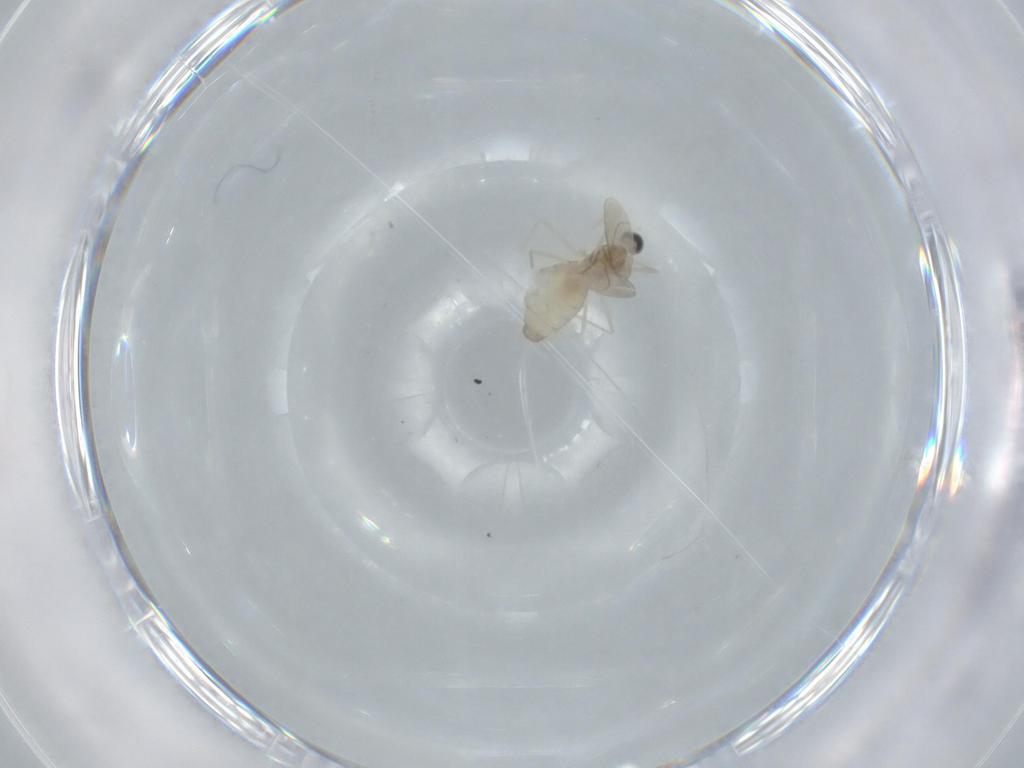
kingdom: Animalia
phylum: Arthropoda
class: Insecta
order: Diptera
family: Cecidomyiidae
